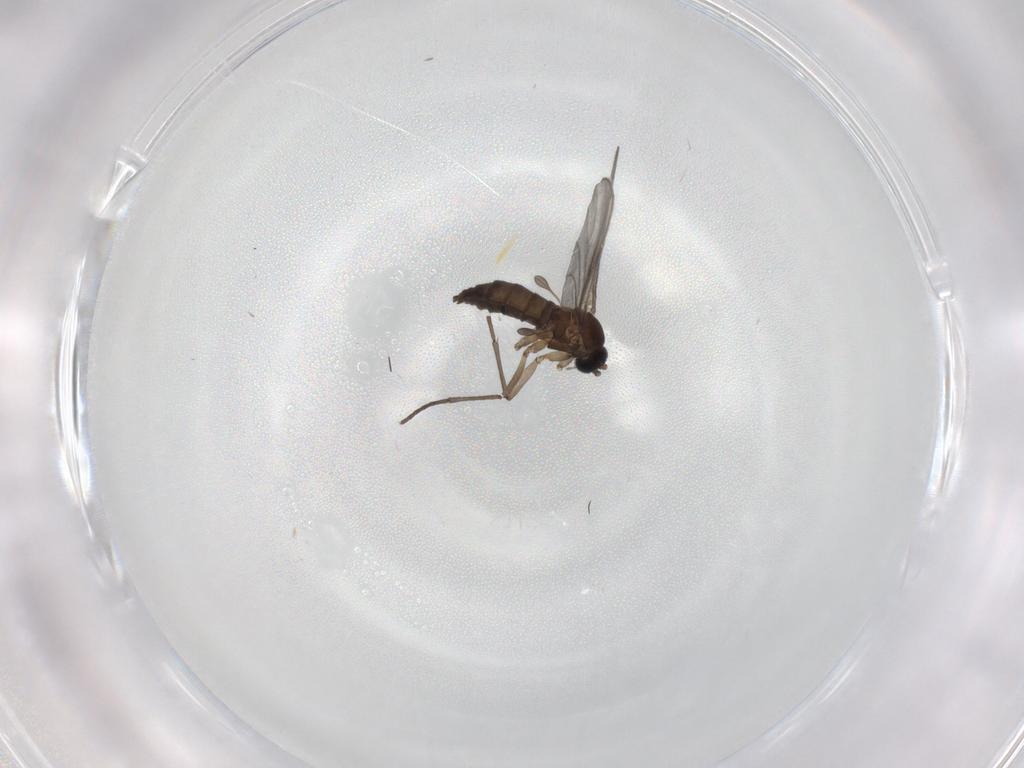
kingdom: Animalia
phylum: Arthropoda
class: Insecta
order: Diptera
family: Sciaridae
